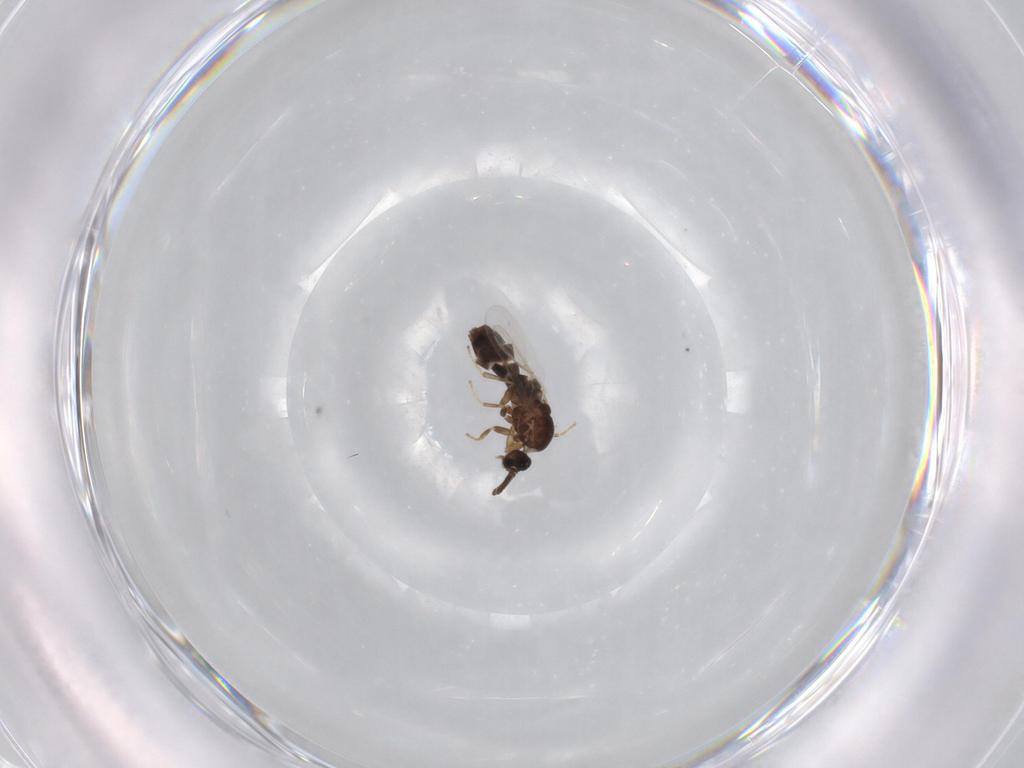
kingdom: Animalia
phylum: Arthropoda
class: Insecta
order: Diptera
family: Scatopsidae
